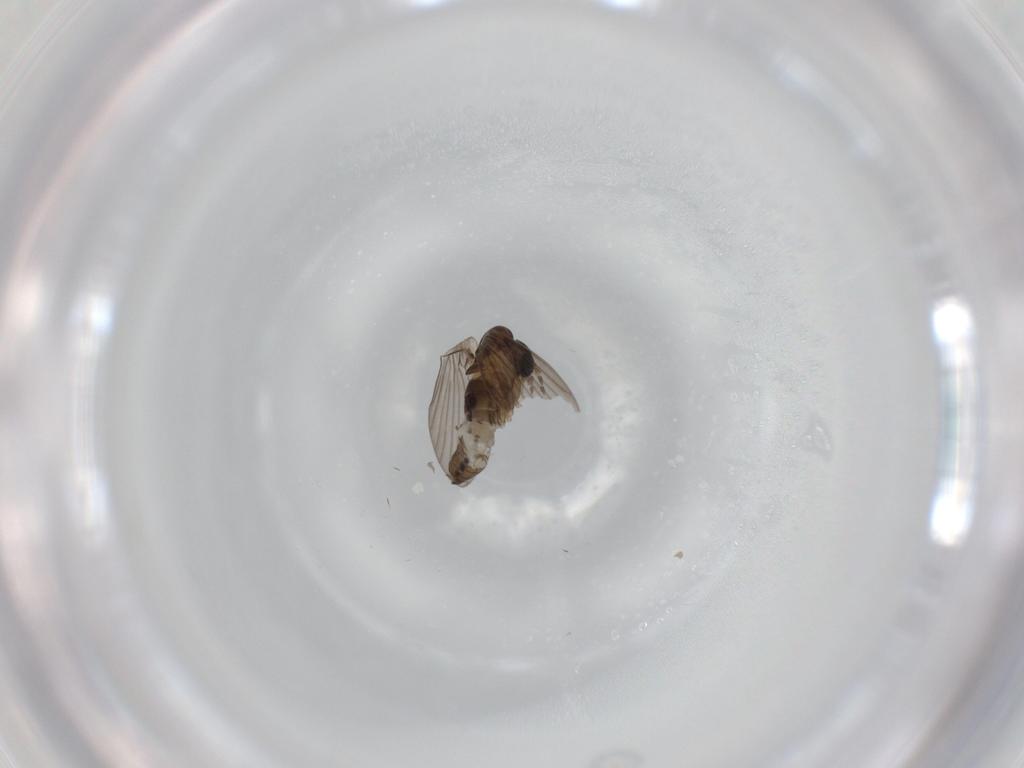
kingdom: Animalia
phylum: Arthropoda
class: Insecta
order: Diptera
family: Psychodidae
